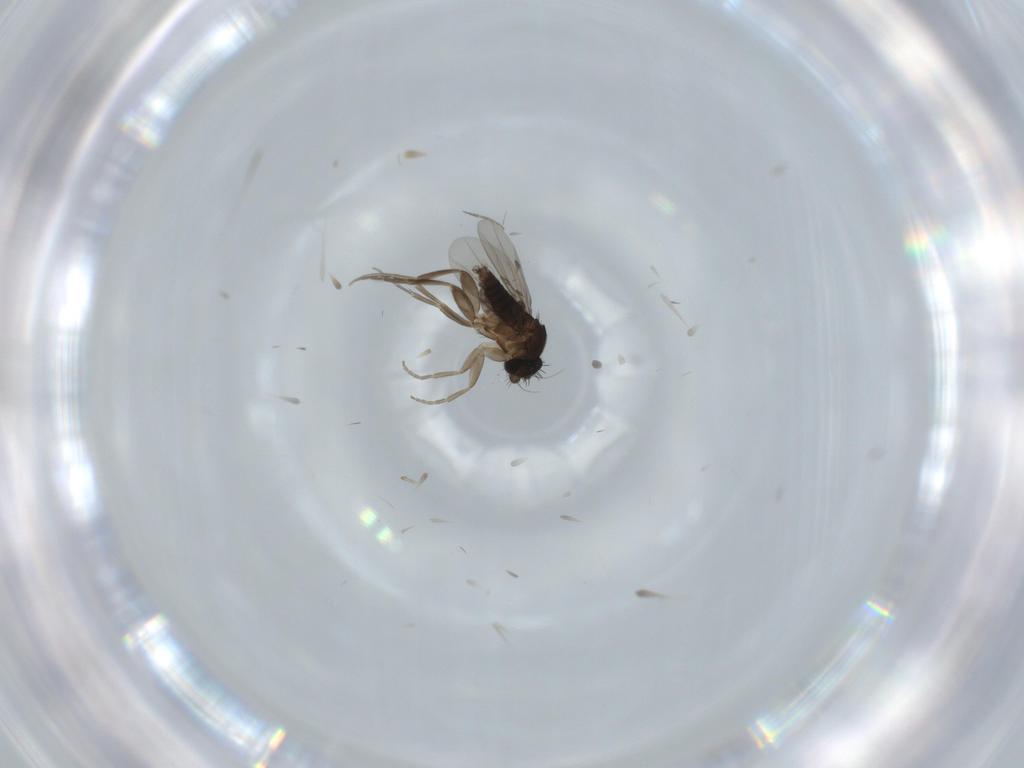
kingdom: Animalia
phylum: Arthropoda
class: Insecta
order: Diptera
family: Phoridae
